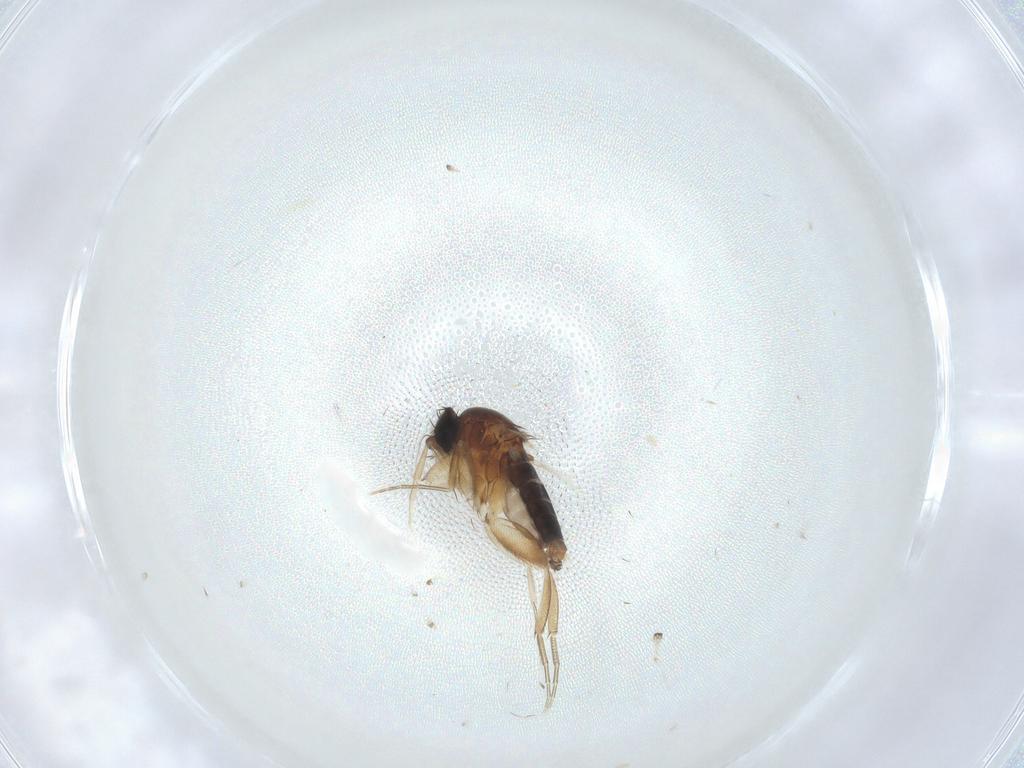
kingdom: Animalia
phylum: Arthropoda
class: Insecta
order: Diptera
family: Phoridae
